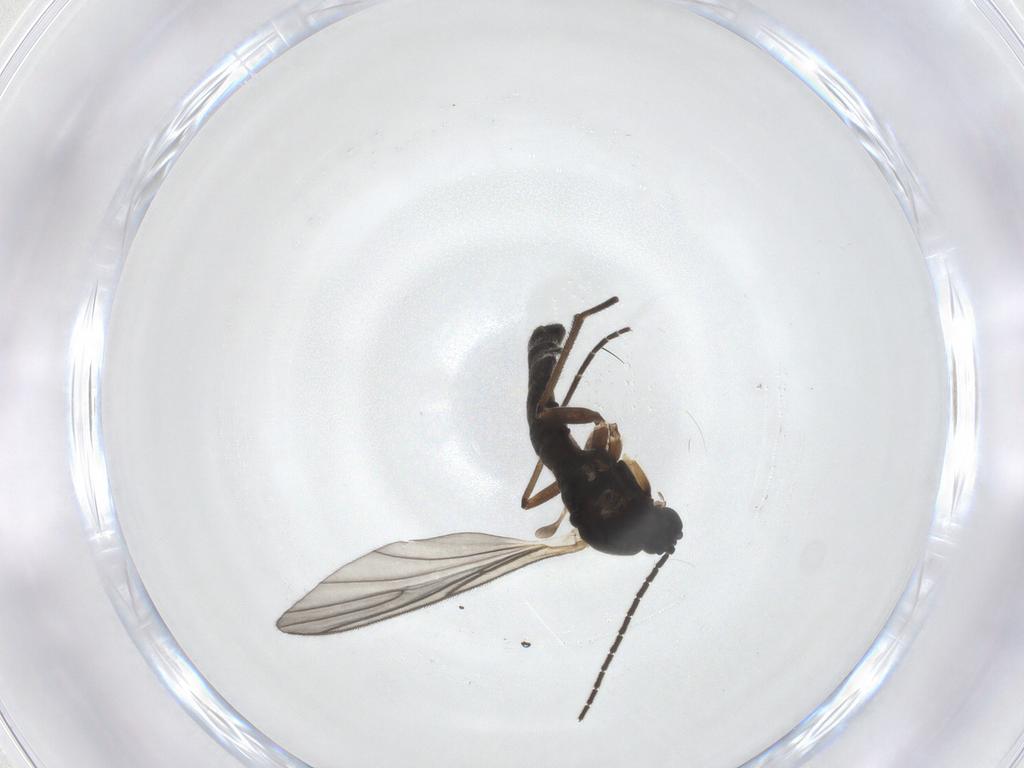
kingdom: Animalia
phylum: Arthropoda
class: Insecta
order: Diptera
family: Sciaridae
